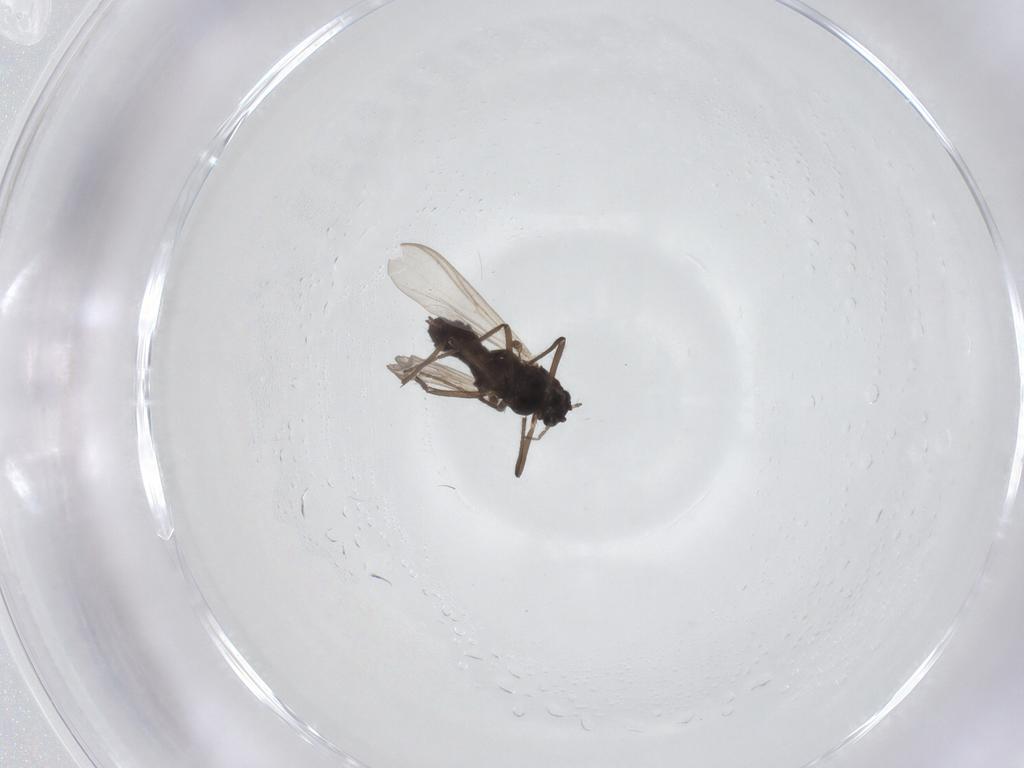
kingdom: Animalia
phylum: Arthropoda
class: Insecta
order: Diptera
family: Chironomidae
